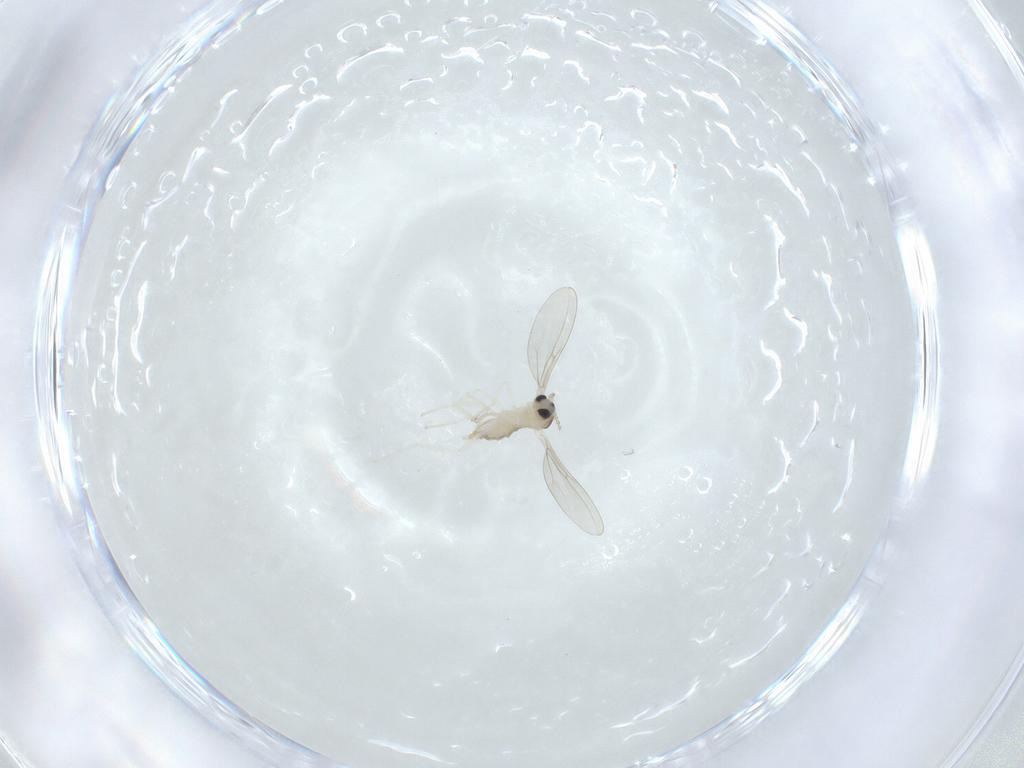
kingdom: Animalia
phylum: Arthropoda
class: Insecta
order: Diptera
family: Cecidomyiidae
